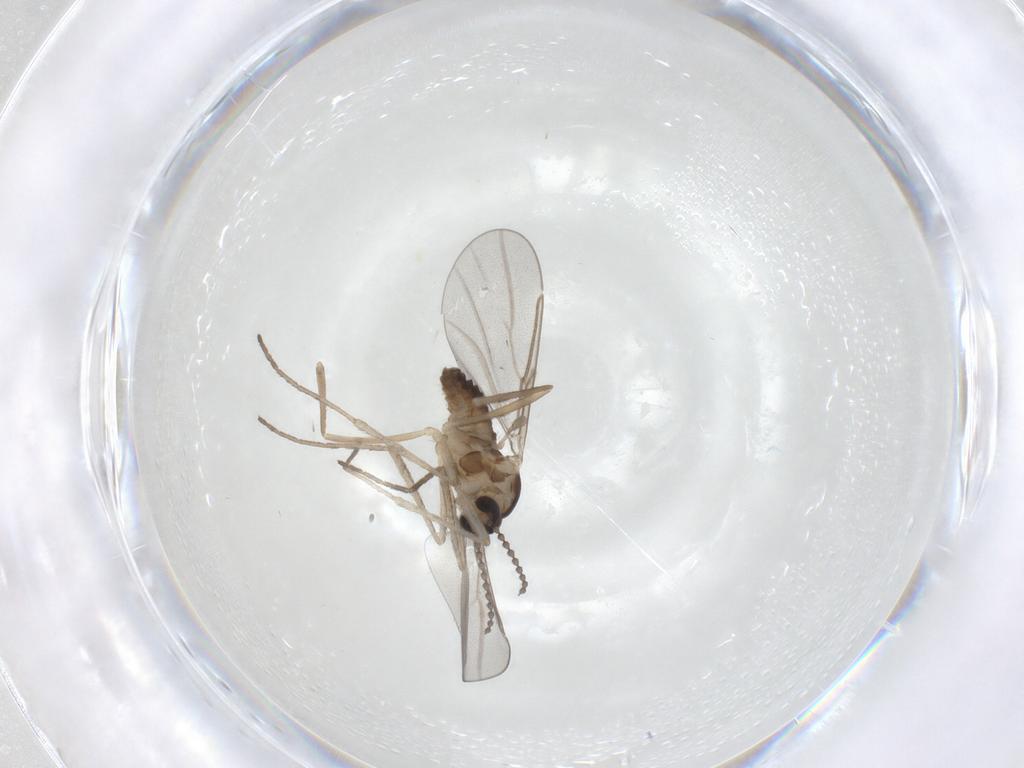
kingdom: Animalia
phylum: Arthropoda
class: Insecta
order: Diptera
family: Cecidomyiidae
